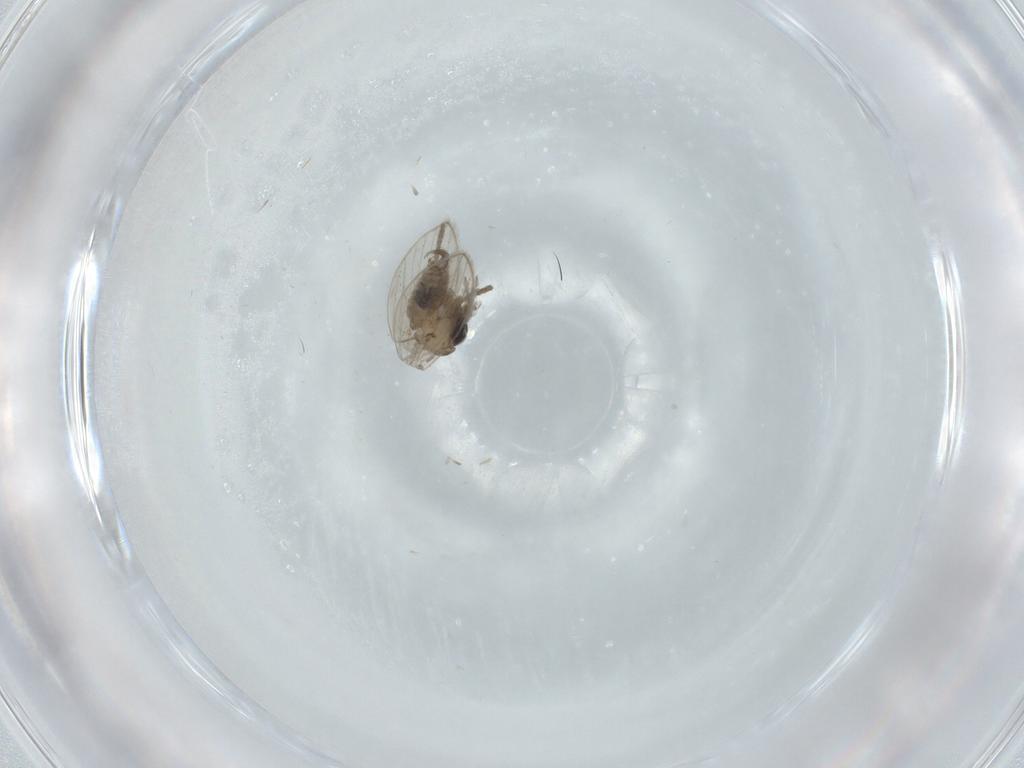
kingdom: Animalia
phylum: Arthropoda
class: Insecta
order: Diptera
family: Psychodidae
